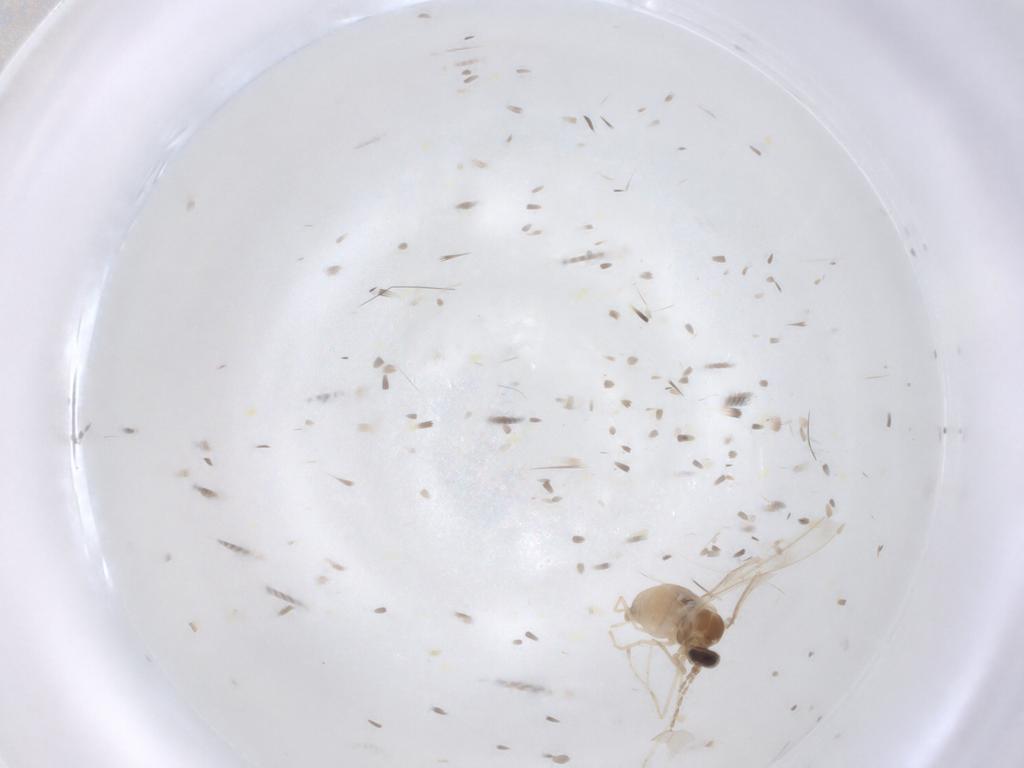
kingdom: Animalia
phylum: Arthropoda
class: Insecta
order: Diptera
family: Cecidomyiidae
